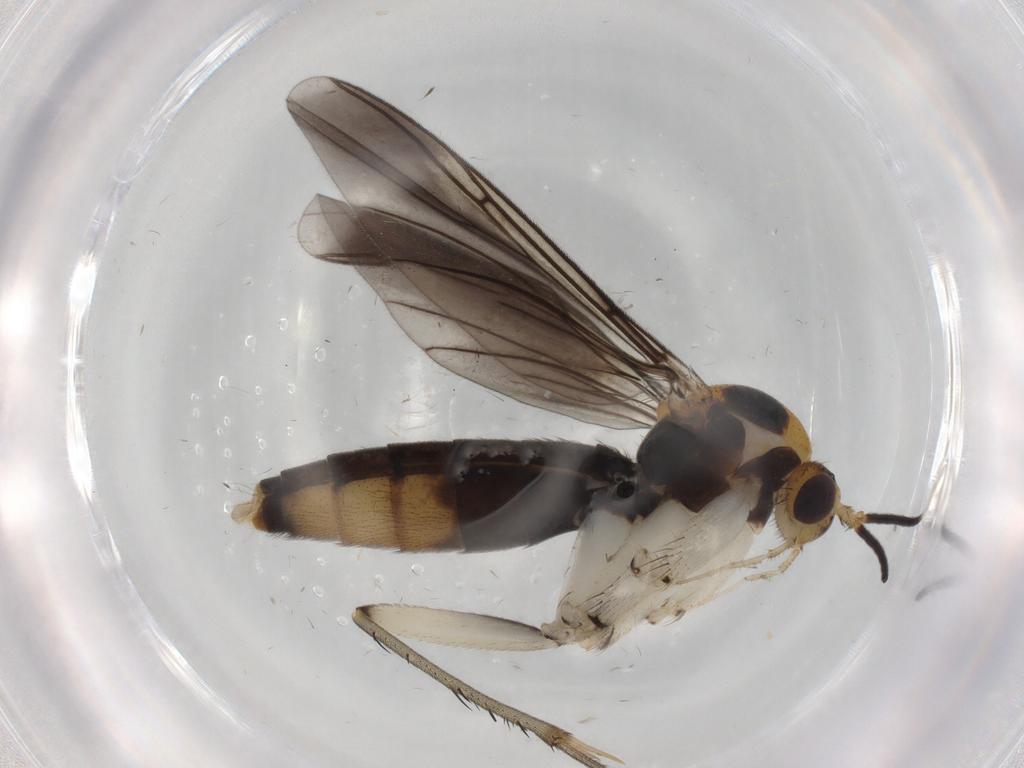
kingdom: Animalia
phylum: Arthropoda
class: Insecta
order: Diptera
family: Mycetophilidae
